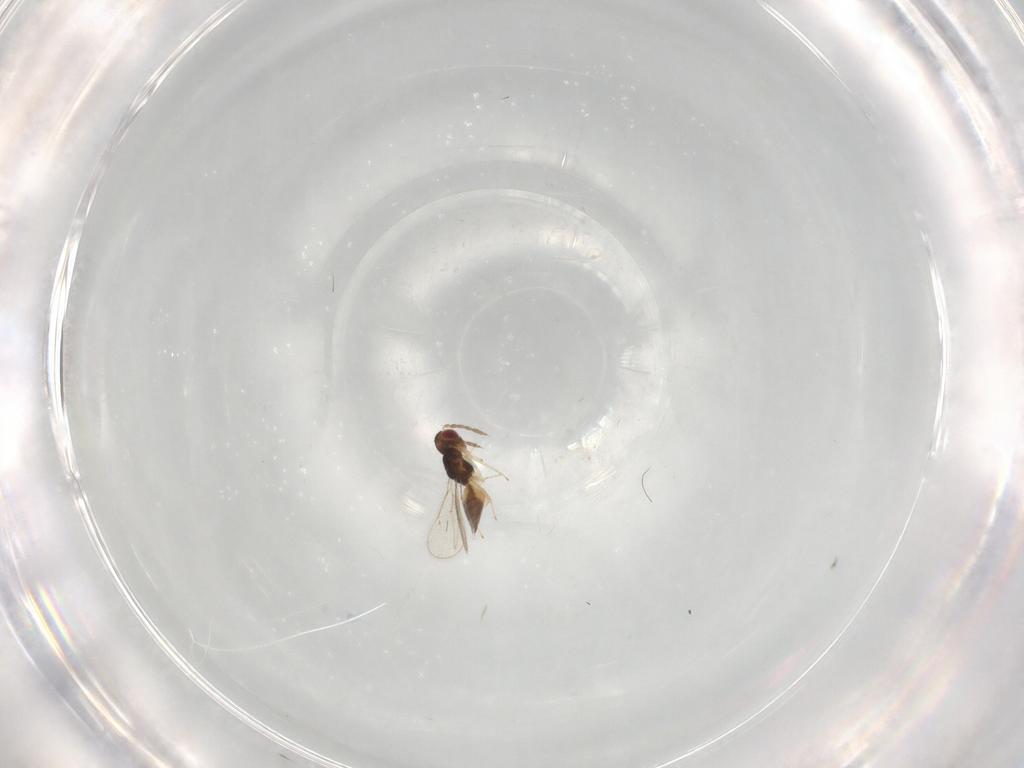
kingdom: Animalia
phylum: Arthropoda
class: Insecta
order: Hymenoptera
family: Eulophidae
